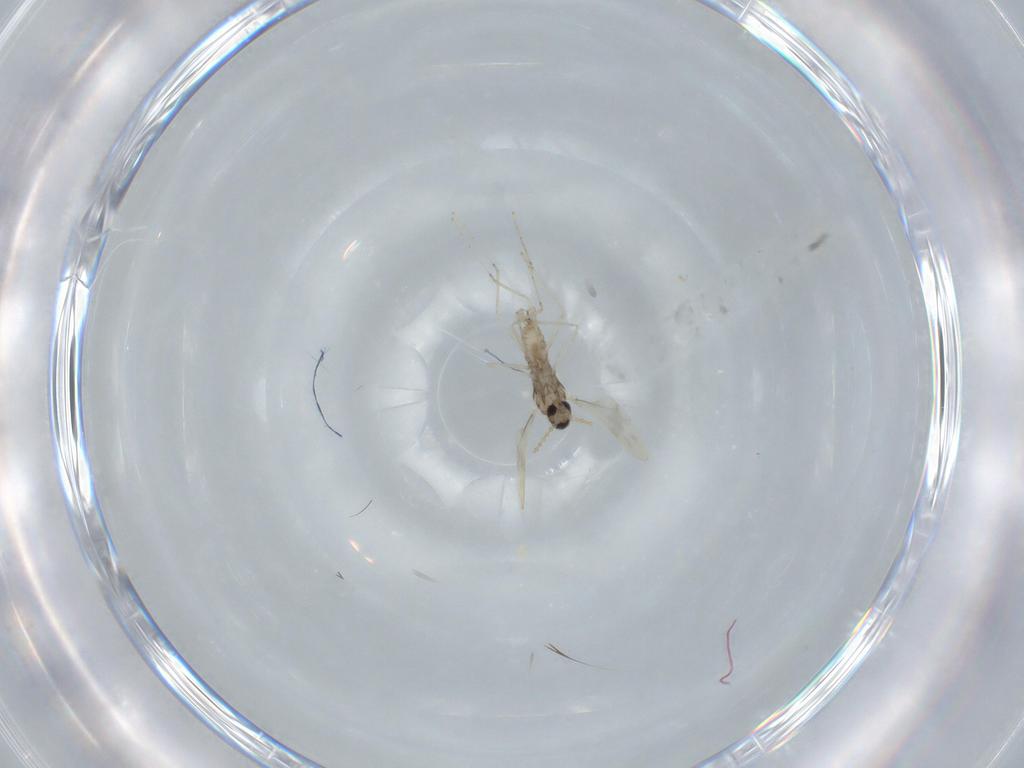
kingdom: Animalia
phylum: Arthropoda
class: Insecta
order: Diptera
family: Cecidomyiidae
